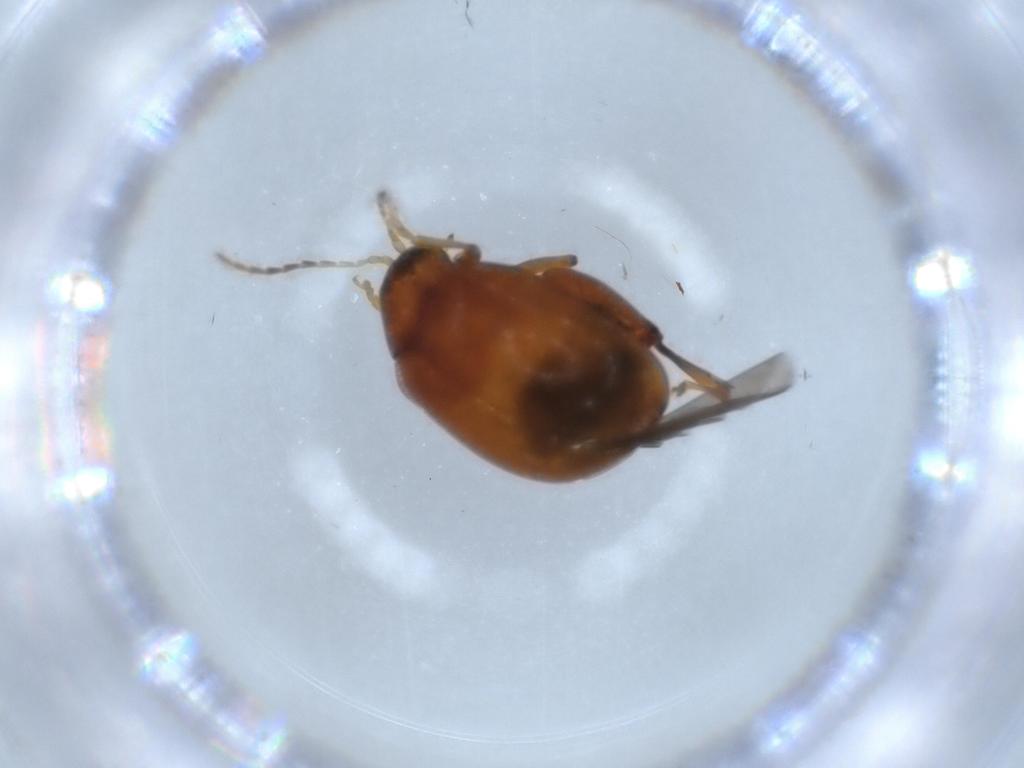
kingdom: Animalia
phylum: Arthropoda
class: Insecta
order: Coleoptera
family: Chrysomelidae
